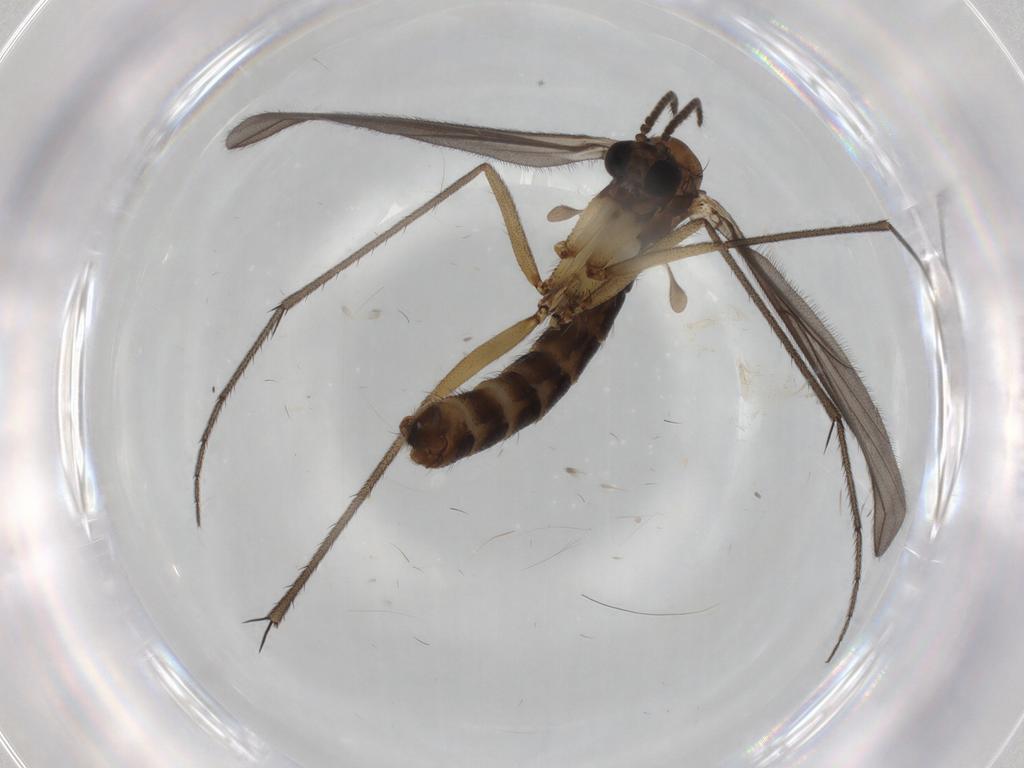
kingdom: Animalia
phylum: Arthropoda
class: Insecta
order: Diptera
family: Ditomyiidae
